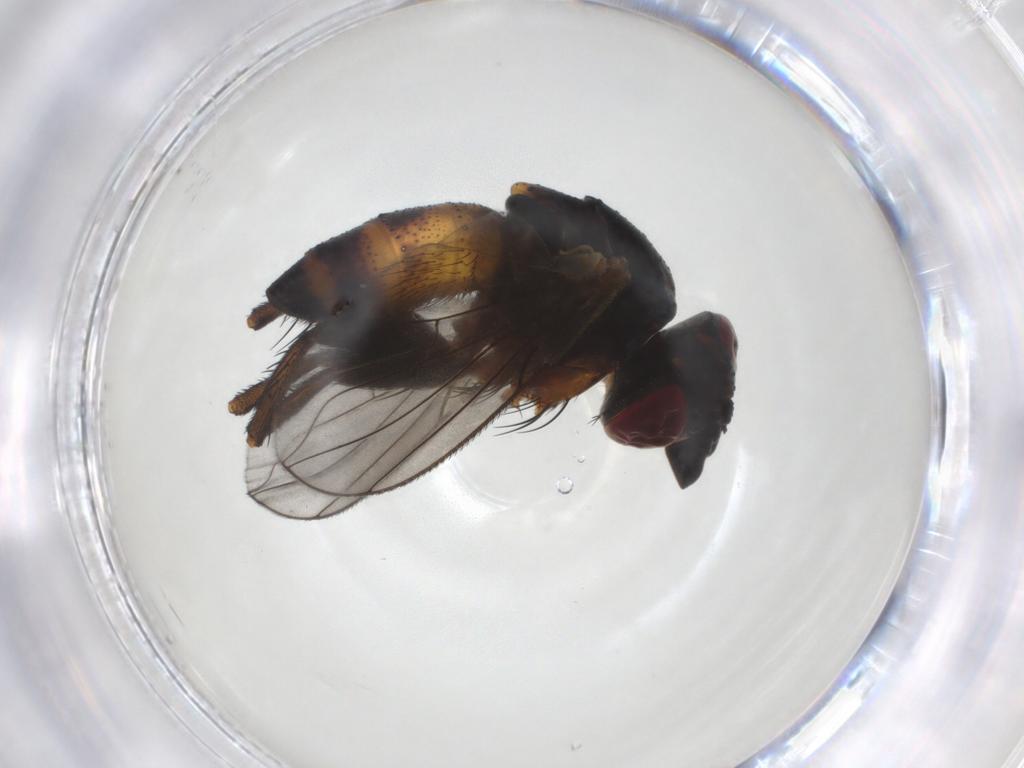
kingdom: Animalia
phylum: Arthropoda
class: Insecta
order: Diptera
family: Tachinidae
